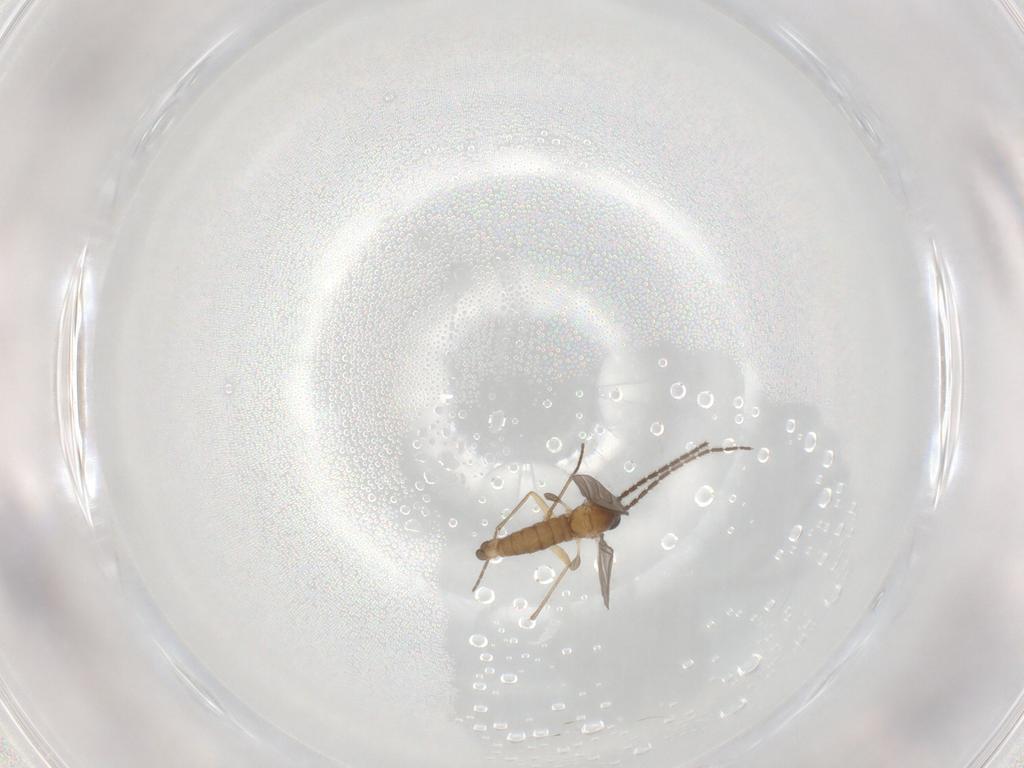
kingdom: Animalia
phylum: Arthropoda
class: Insecta
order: Diptera
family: Sciaridae
